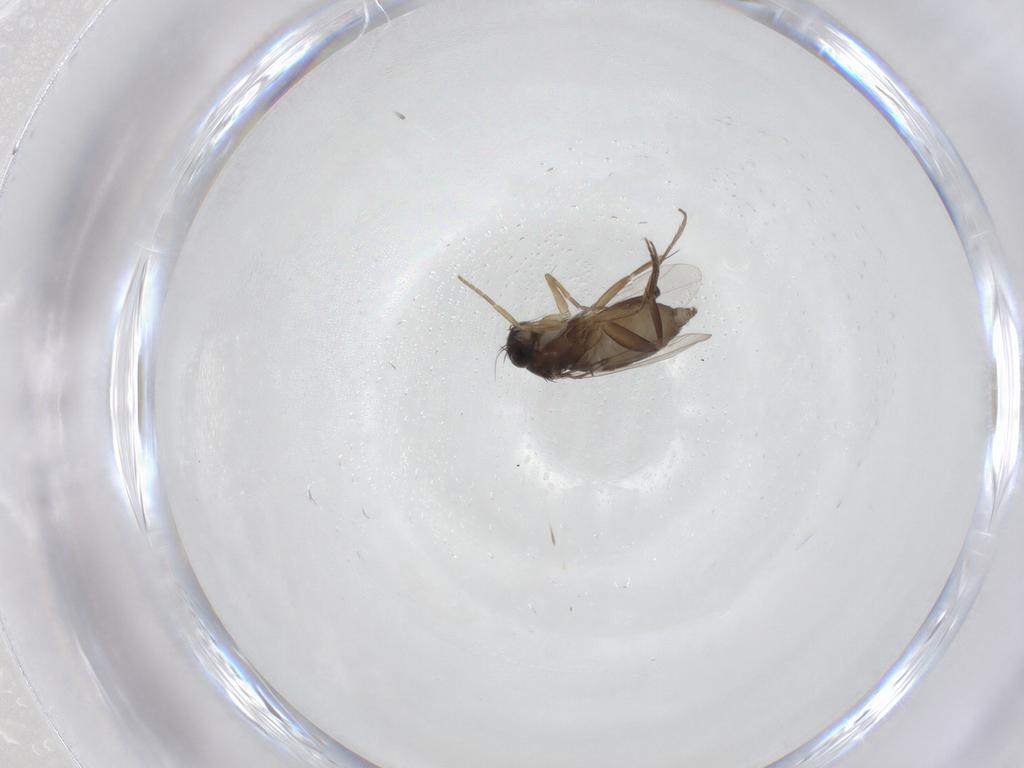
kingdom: Animalia
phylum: Arthropoda
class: Insecta
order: Diptera
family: Phoridae
